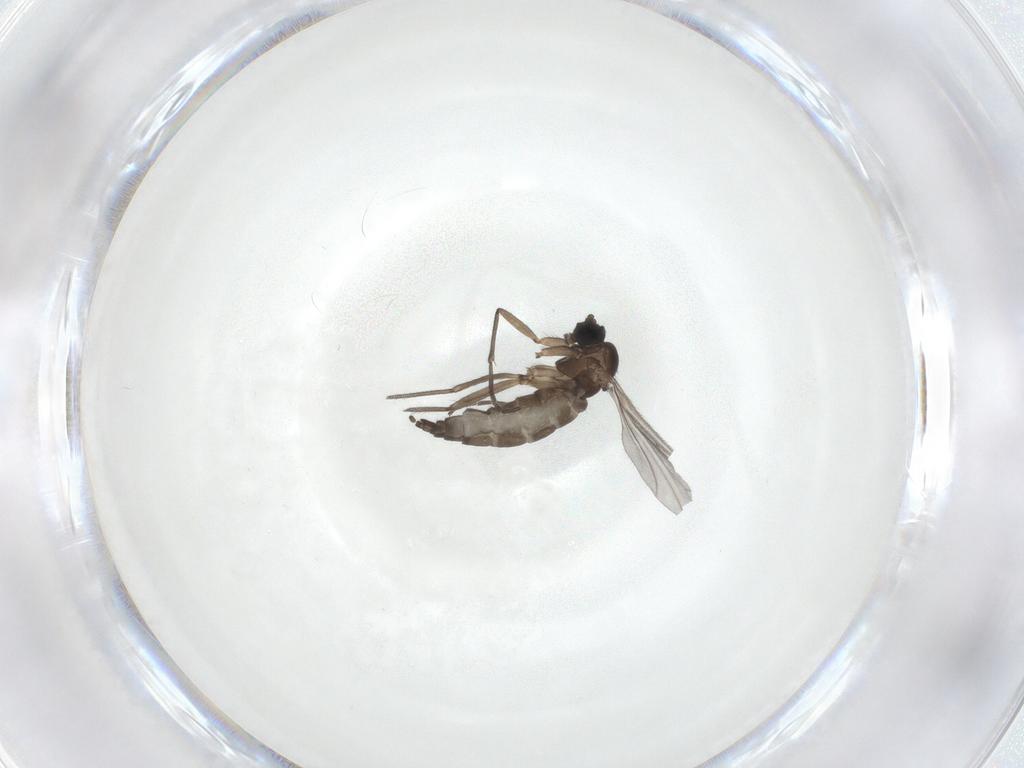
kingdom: Animalia
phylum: Arthropoda
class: Insecta
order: Diptera
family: Sciaridae
